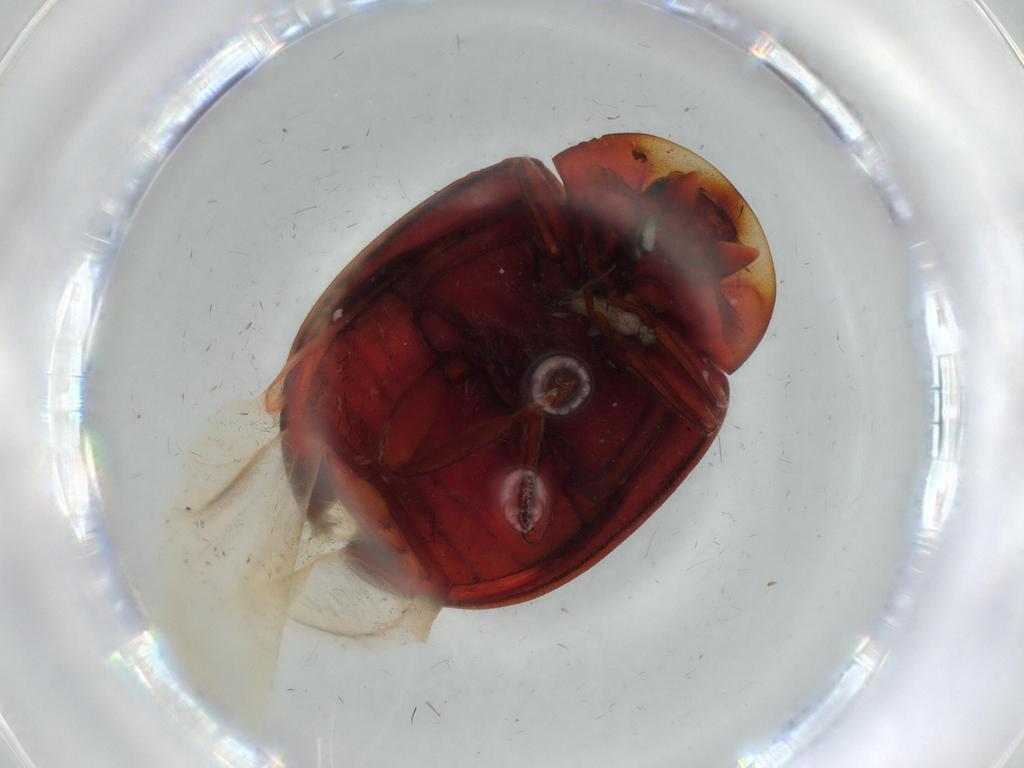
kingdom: Animalia
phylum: Arthropoda
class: Insecta
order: Coleoptera
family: Coccinellidae
